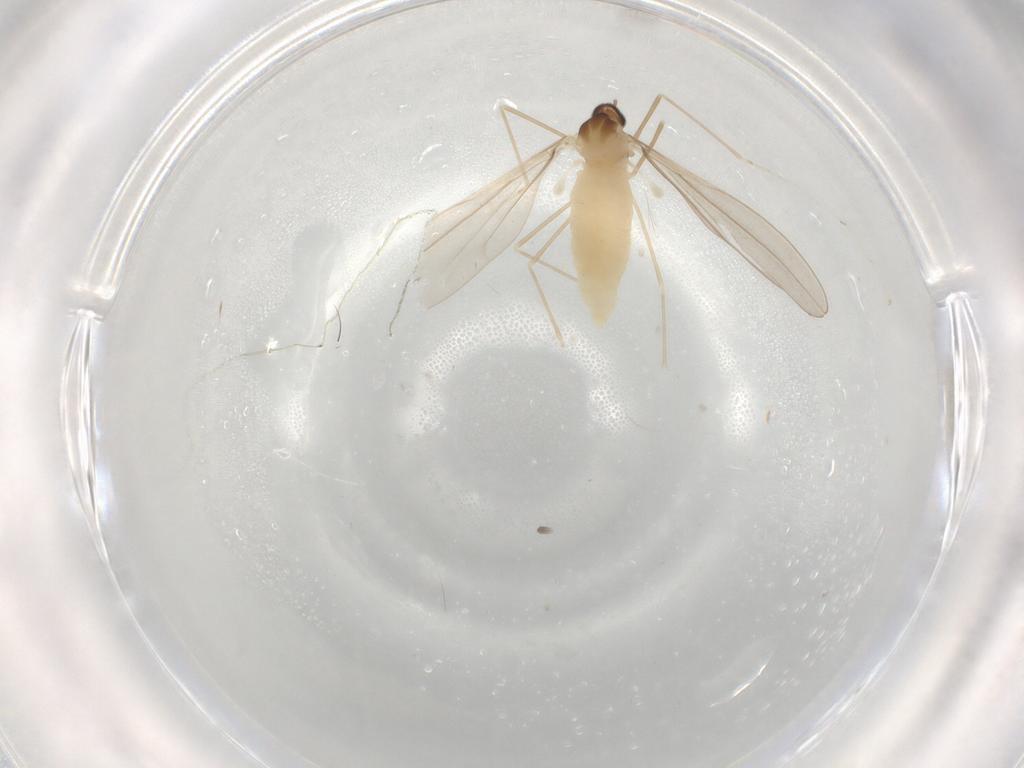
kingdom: Animalia
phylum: Arthropoda
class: Insecta
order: Diptera
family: Cecidomyiidae
